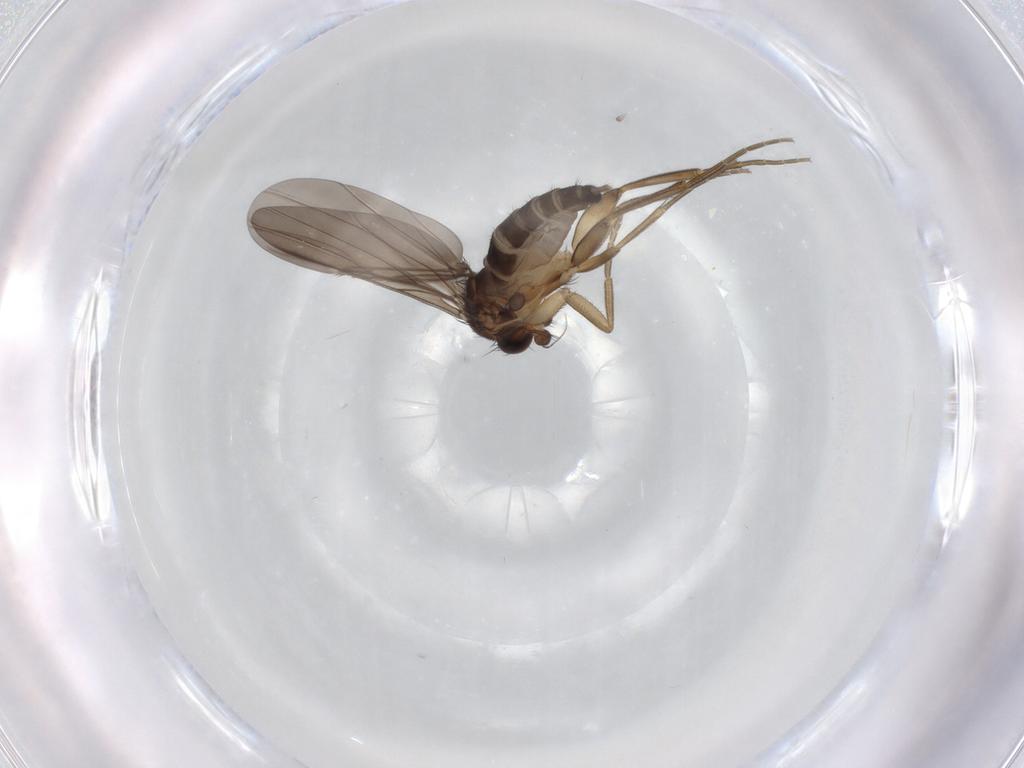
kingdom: Animalia
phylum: Arthropoda
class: Insecta
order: Diptera
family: Phoridae
